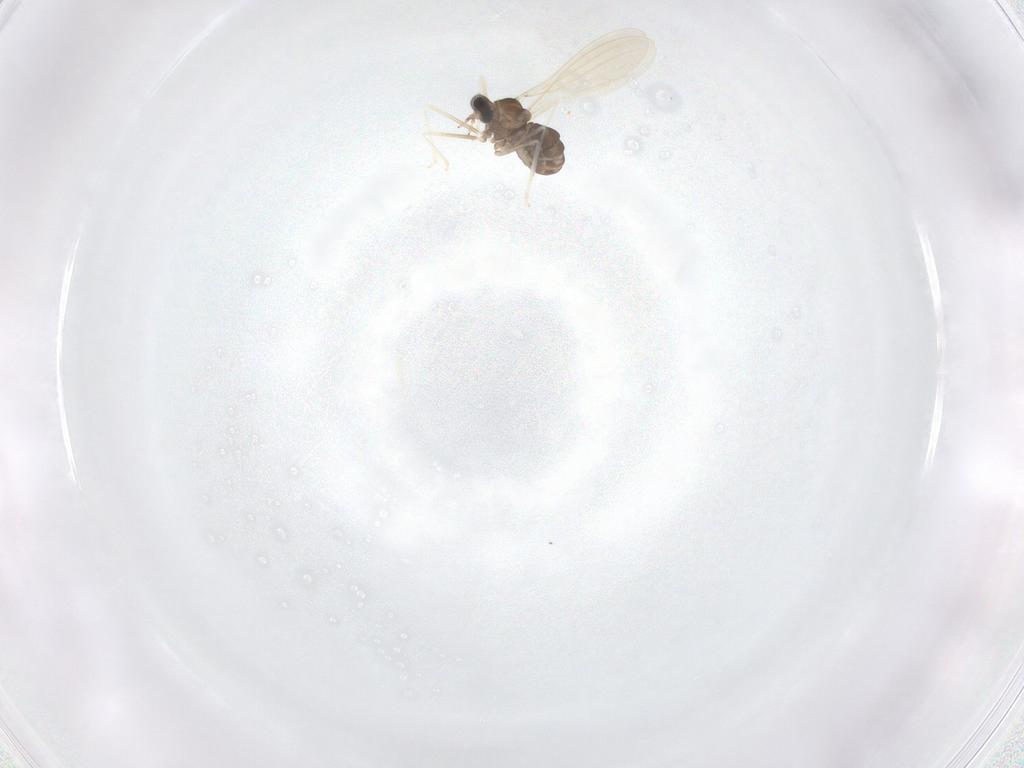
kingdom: Animalia
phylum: Arthropoda
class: Insecta
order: Diptera
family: Cecidomyiidae
